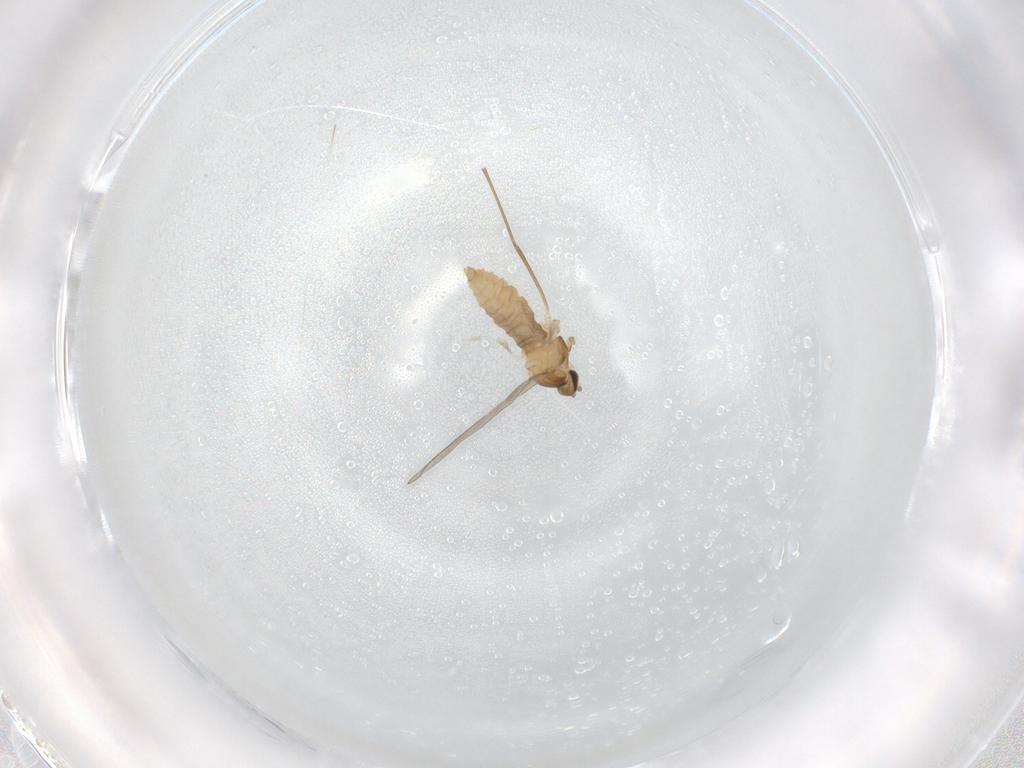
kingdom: Animalia
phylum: Arthropoda
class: Insecta
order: Diptera
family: Cecidomyiidae
